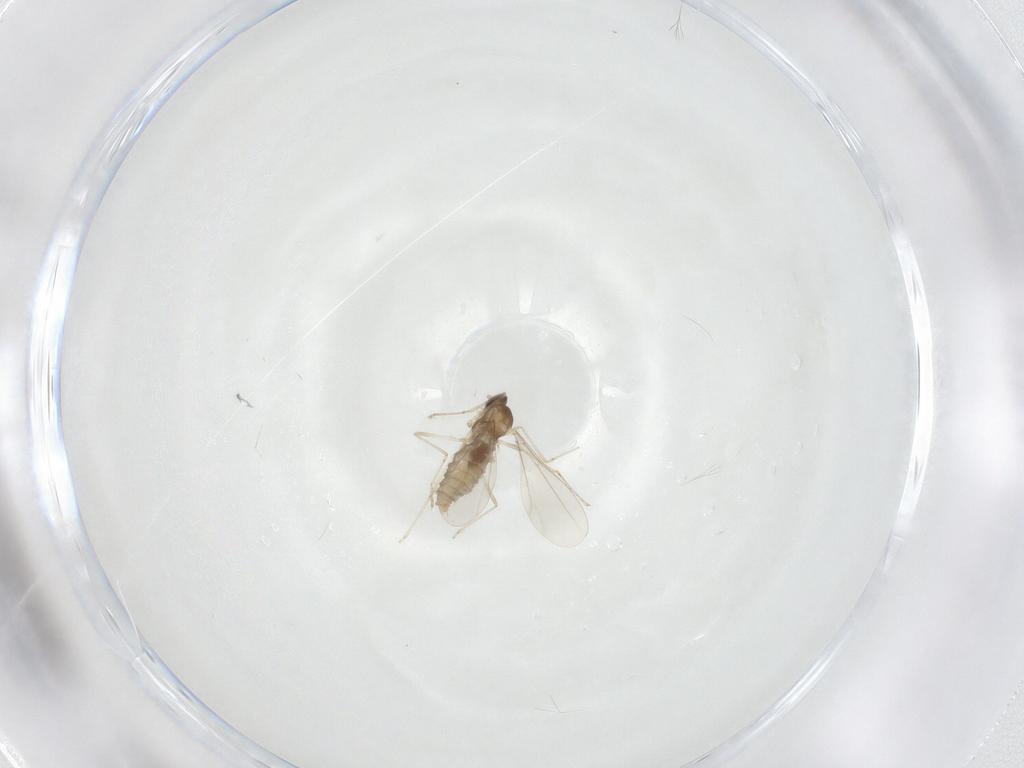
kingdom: Animalia
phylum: Arthropoda
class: Insecta
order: Diptera
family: Cecidomyiidae
